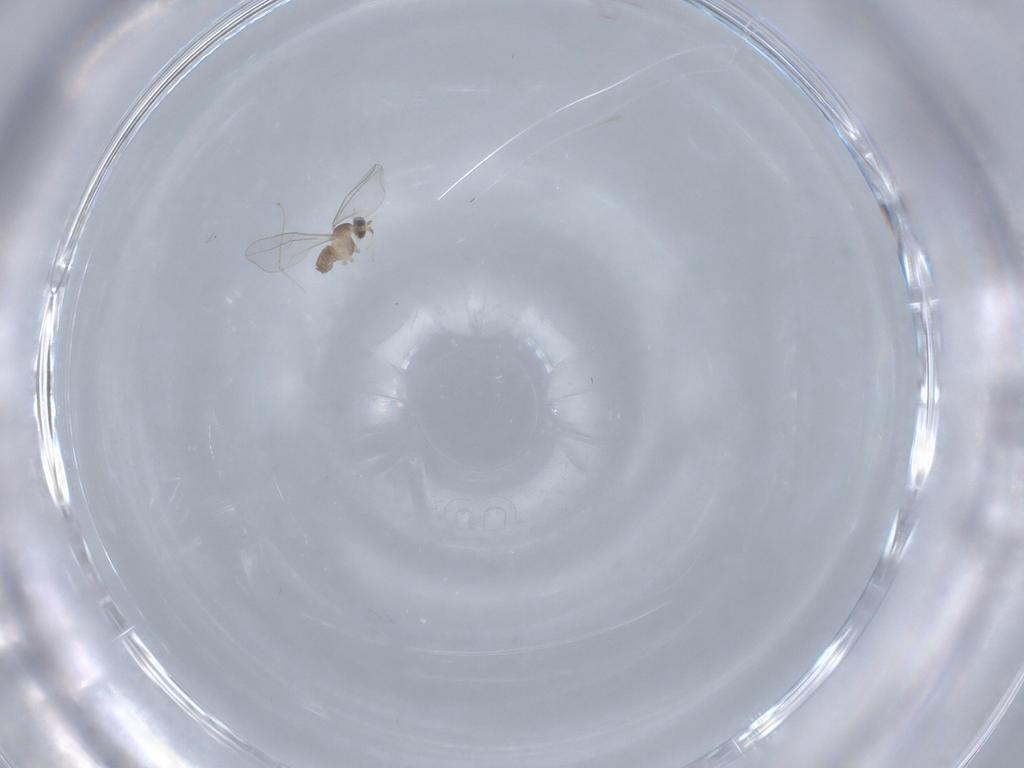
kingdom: Animalia
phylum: Arthropoda
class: Insecta
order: Diptera
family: Cecidomyiidae
